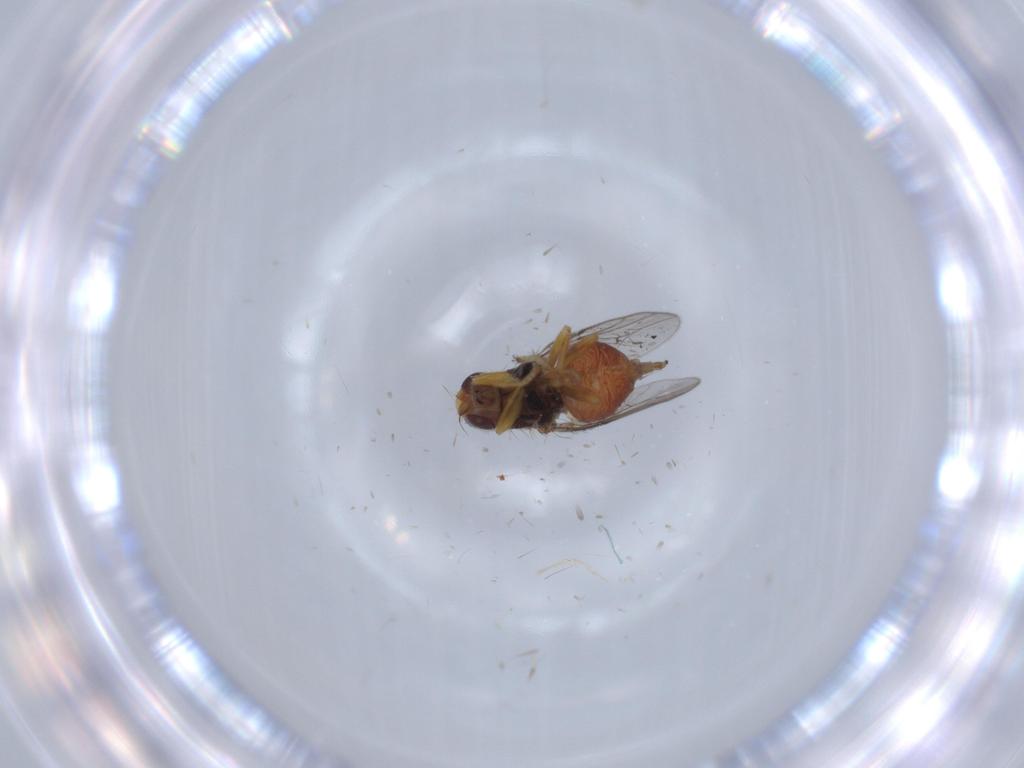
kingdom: Animalia
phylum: Arthropoda
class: Insecta
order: Diptera
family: Chloropidae
